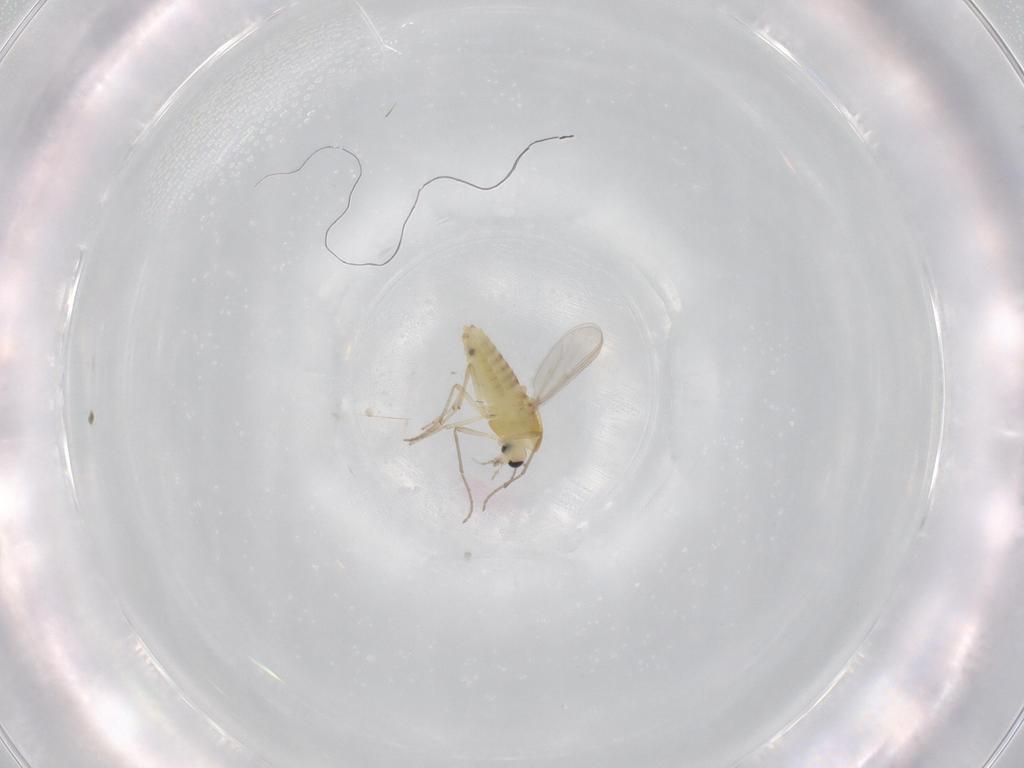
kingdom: Animalia
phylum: Arthropoda
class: Insecta
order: Diptera
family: Chironomidae
